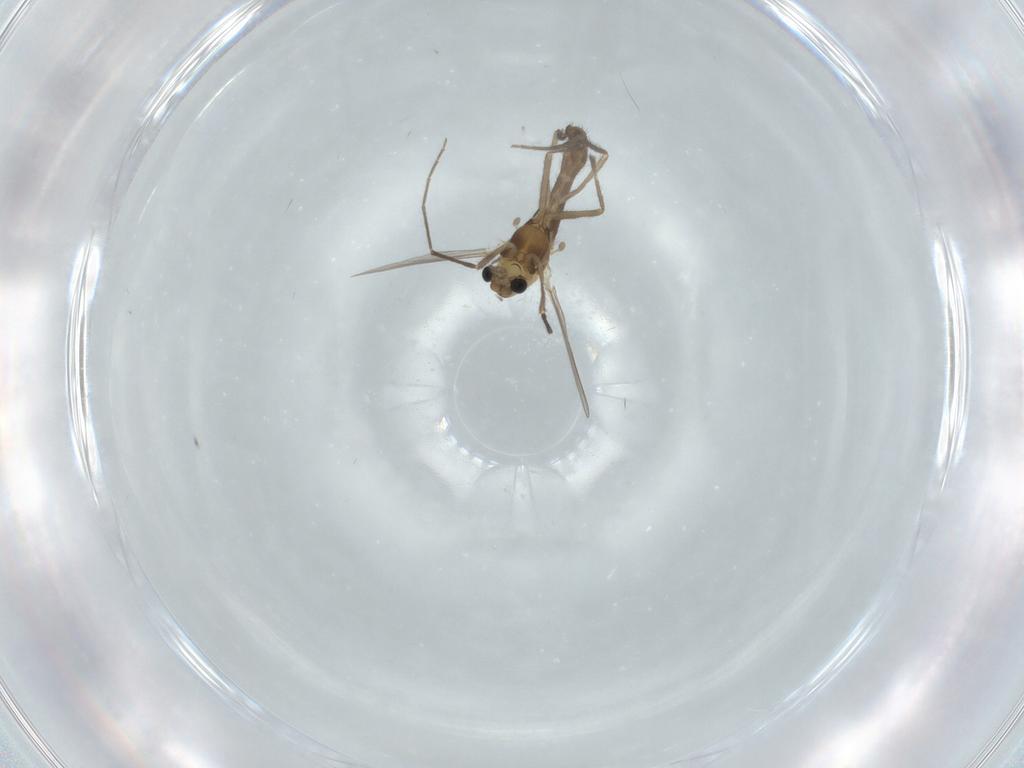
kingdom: Animalia
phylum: Arthropoda
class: Insecta
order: Diptera
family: Chironomidae
